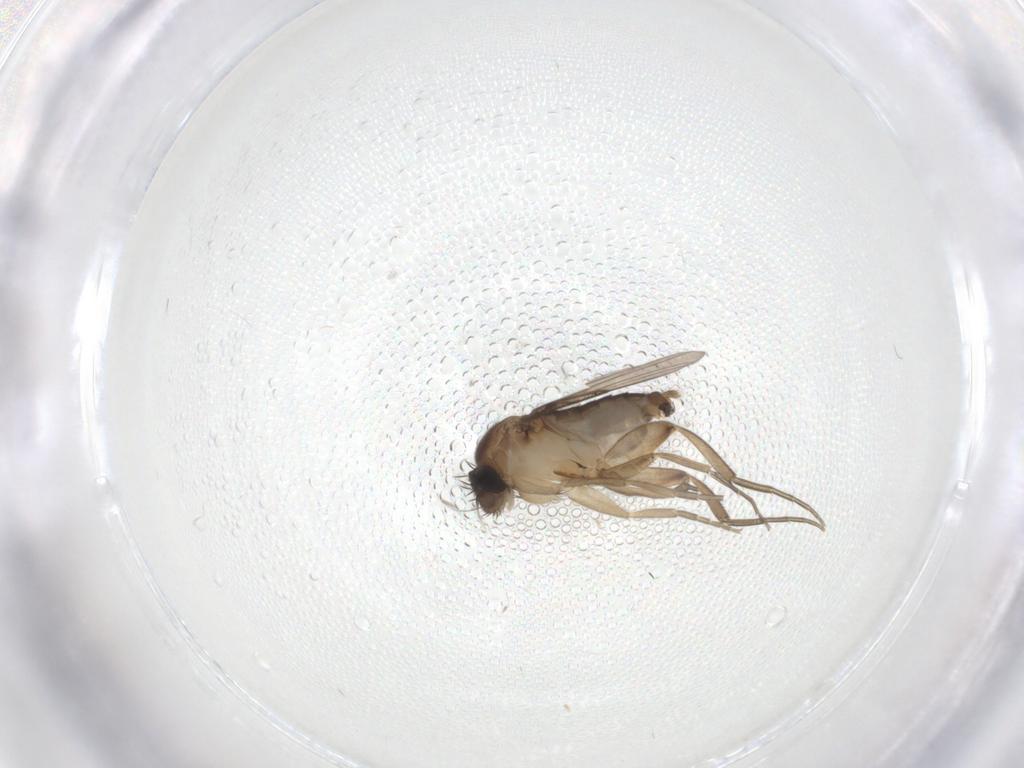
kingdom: Animalia
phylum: Arthropoda
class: Insecta
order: Diptera
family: Phoridae
